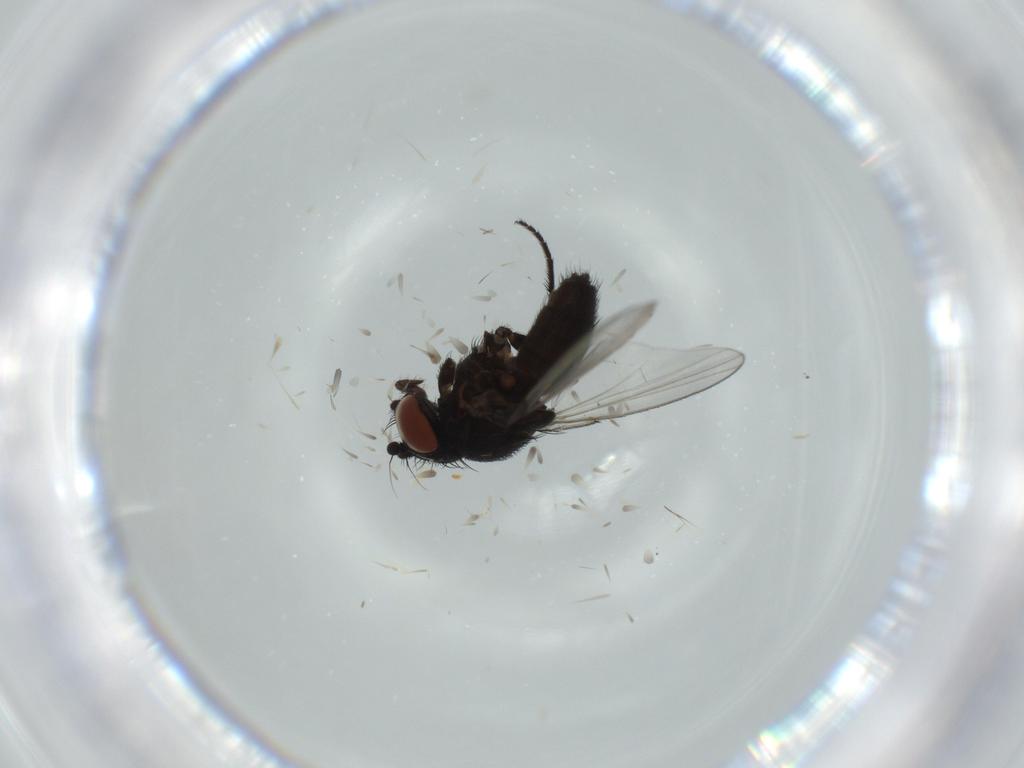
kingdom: Animalia
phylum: Arthropoda
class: Insecta
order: Diptera
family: Milichiidae
